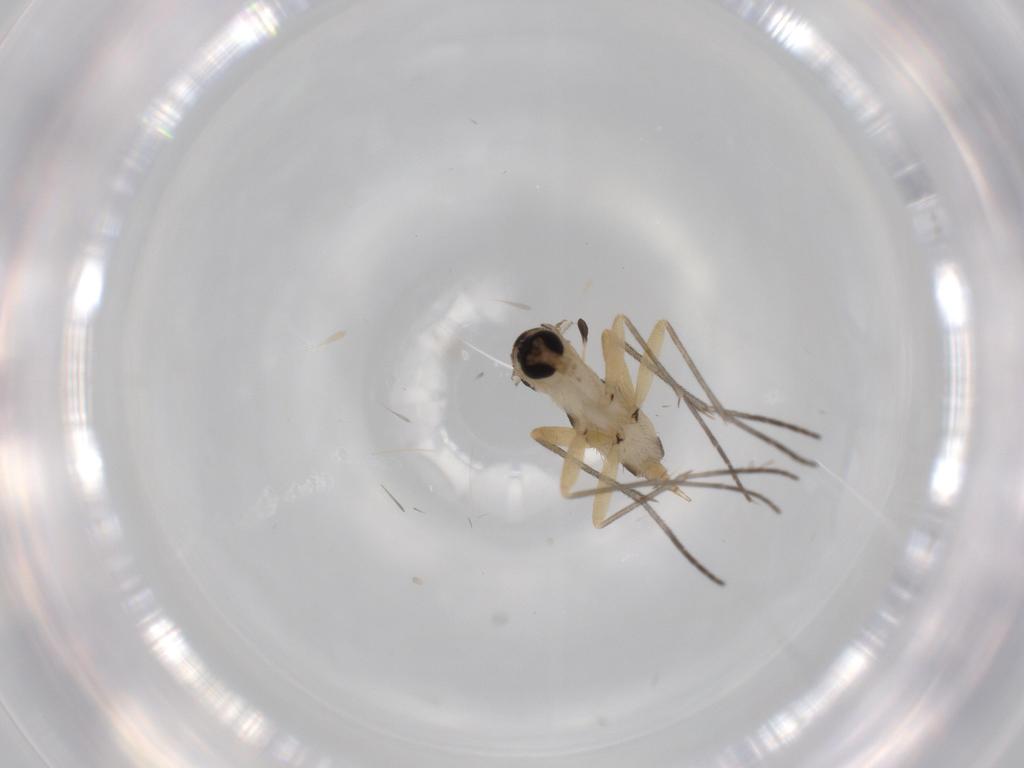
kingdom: Animalia
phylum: Arthropoda
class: Insecta
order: Diptera
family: Sciaridae
